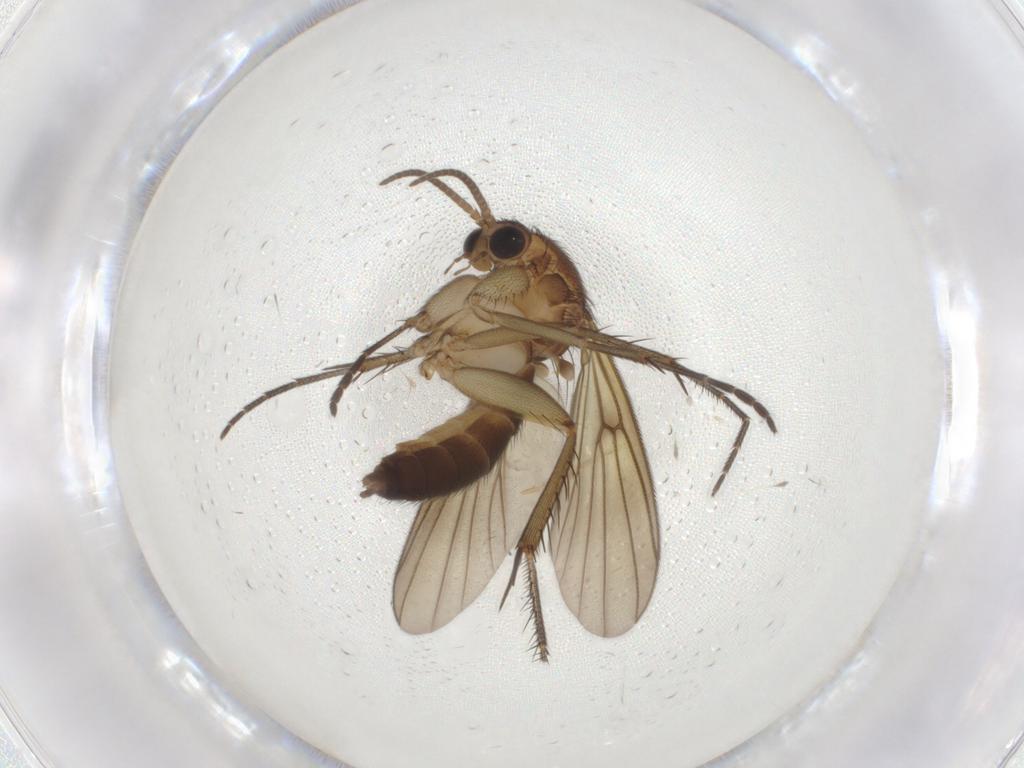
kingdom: Animalia
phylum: Arthropoda
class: Insecta
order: Diptera
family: Mycetophilidae
